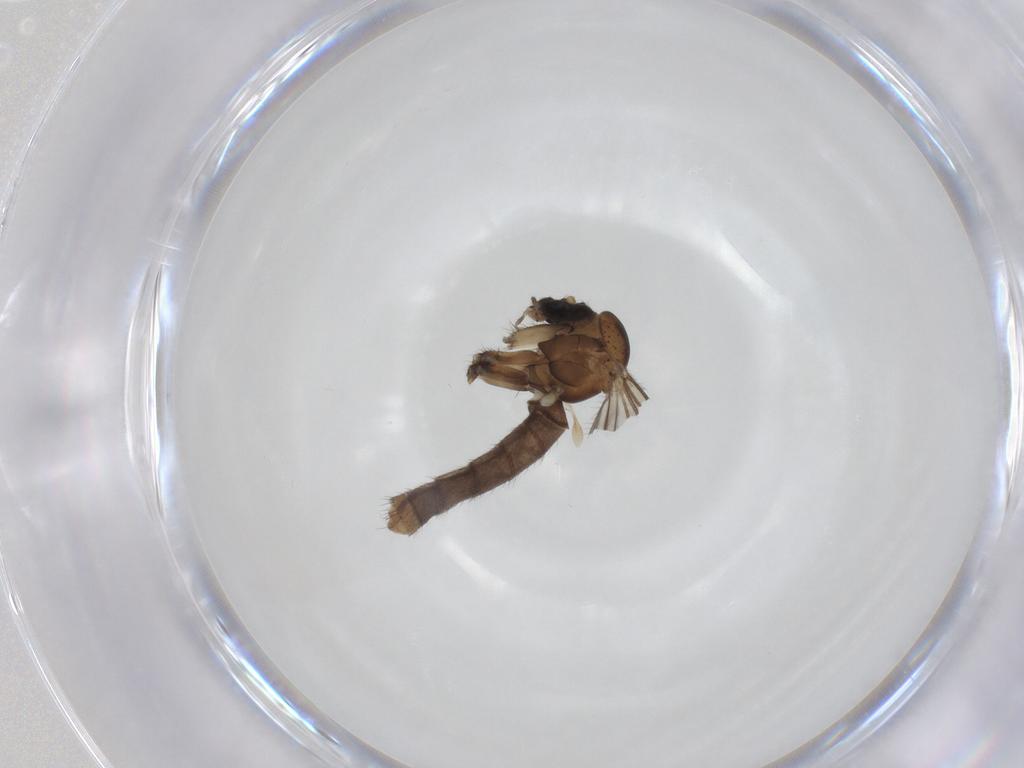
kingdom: Animalia
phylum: Arthropoda
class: Insecta
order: Diptera
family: Mycetophilidae
